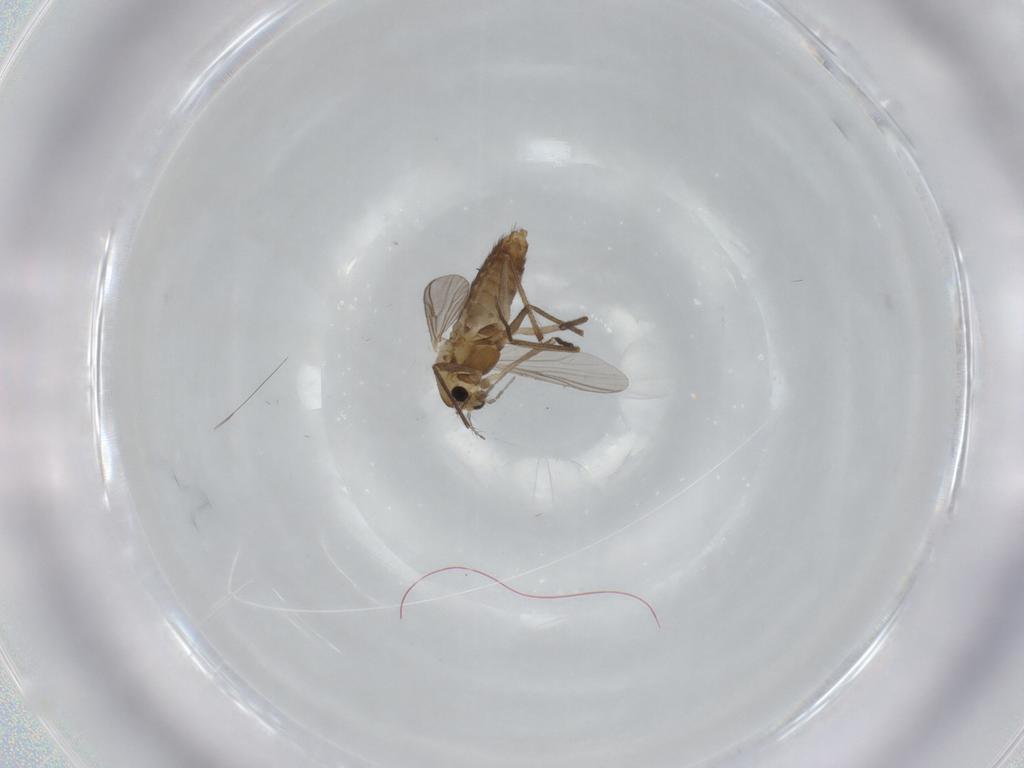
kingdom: Animalia
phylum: Arthropoda
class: Insecta
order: Diptera
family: Chironomidae
